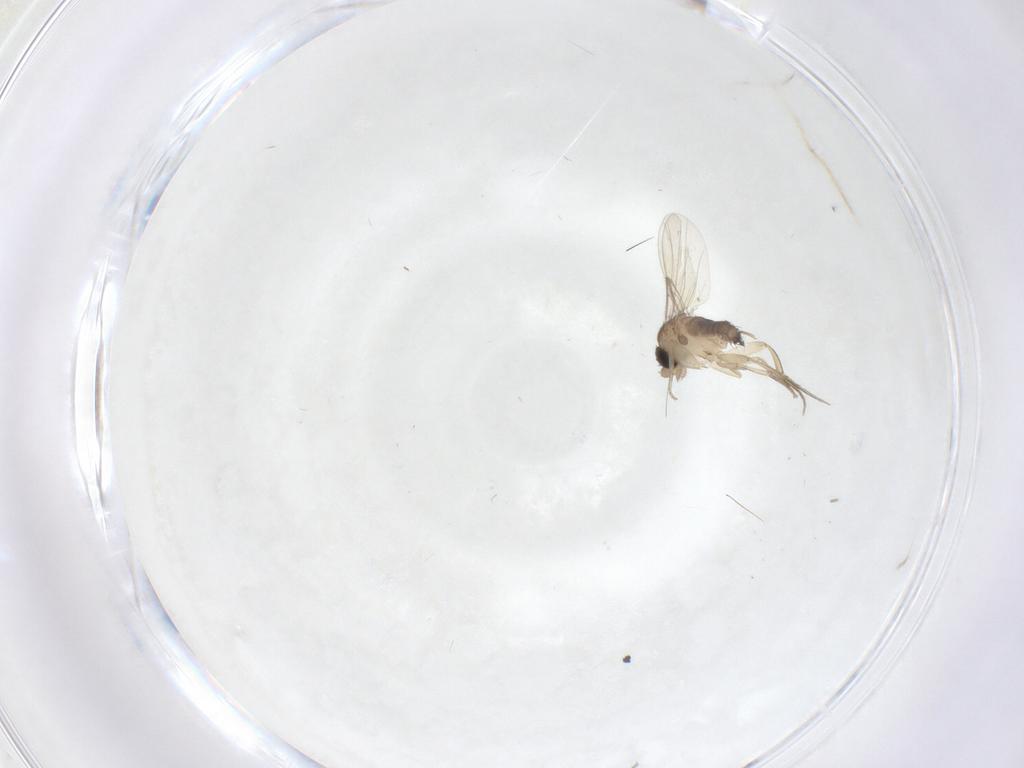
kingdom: Animalia
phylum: Arthropoda
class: Insecta
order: Diptera
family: Phoridae
